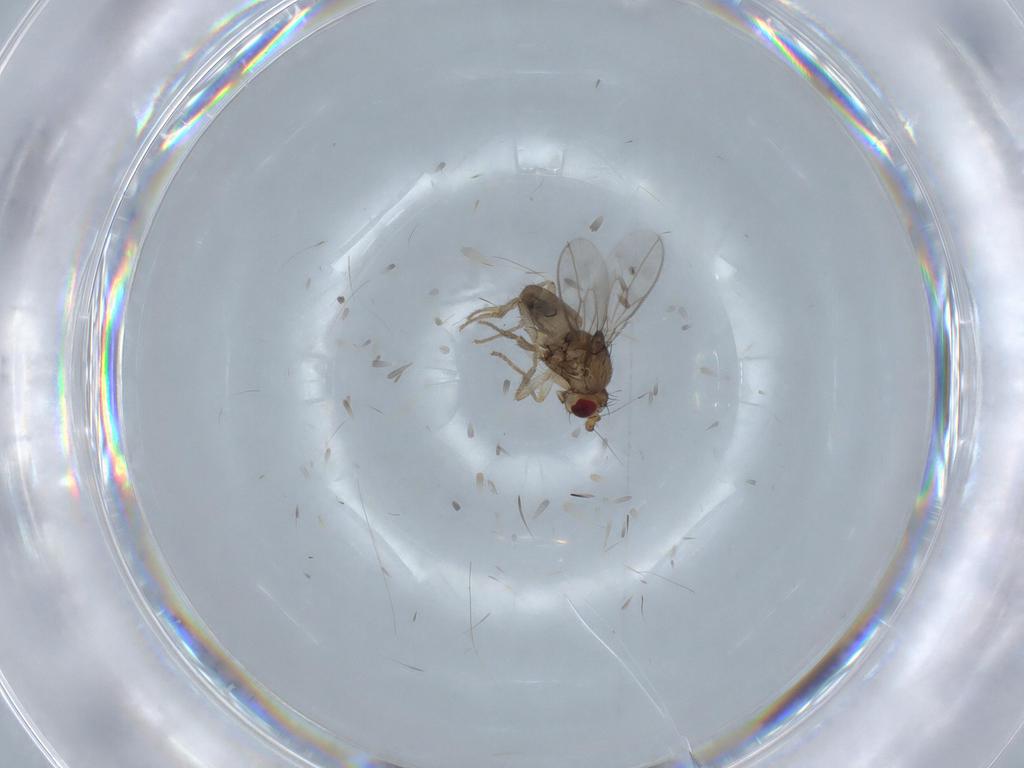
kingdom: Animalia
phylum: Arthropoda
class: Insecta
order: Diptera
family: Sphaeroceridae
